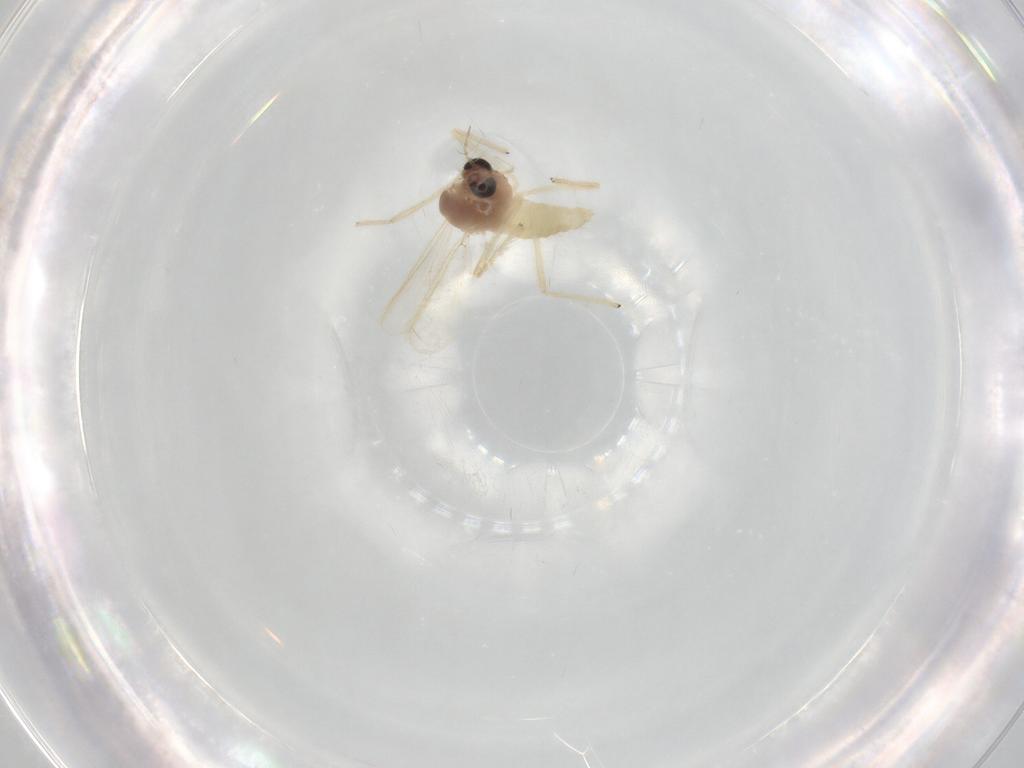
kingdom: Animalia
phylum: Arthropoda
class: Insecta
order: Diptera
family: Chironomidae
